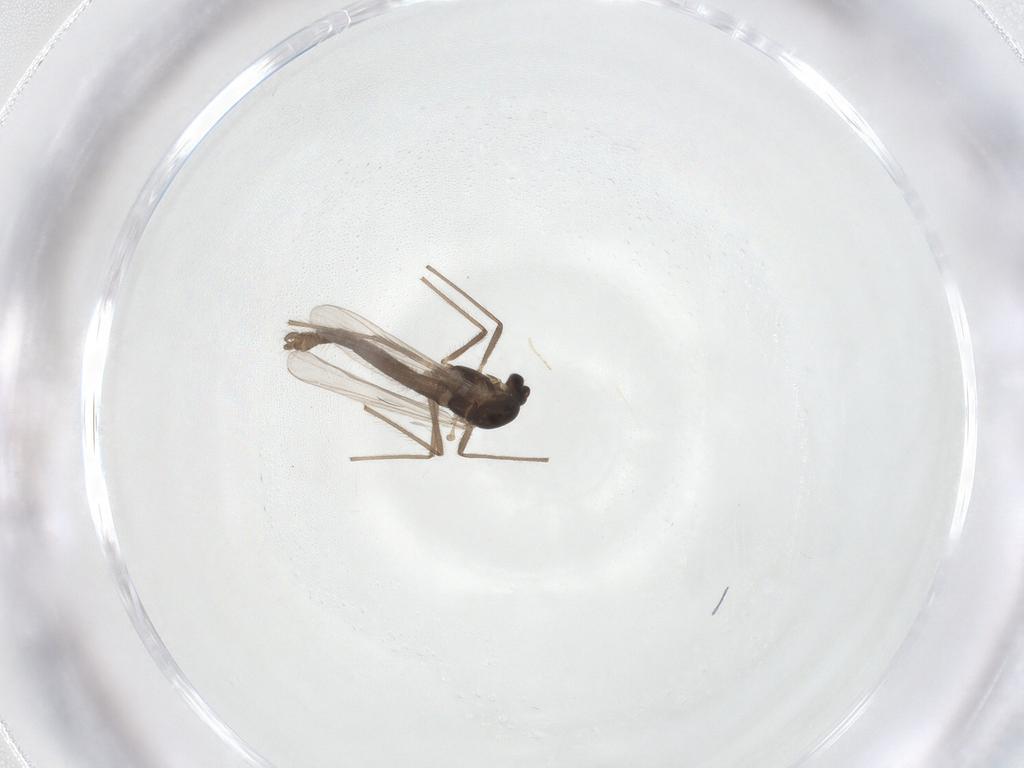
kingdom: Animalia
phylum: Arthropoda
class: Insecta
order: Diptera
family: Chironomidae
